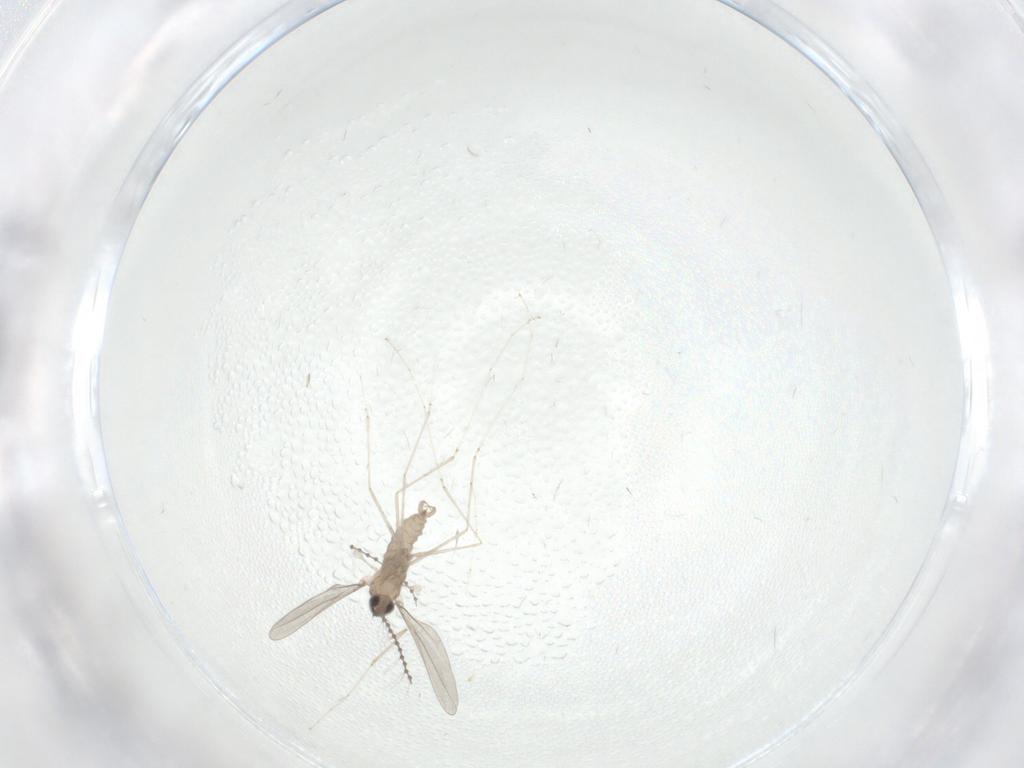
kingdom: Animalia
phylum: Arthropoda
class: Insecta
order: Diptera
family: Cecidomyiidae
